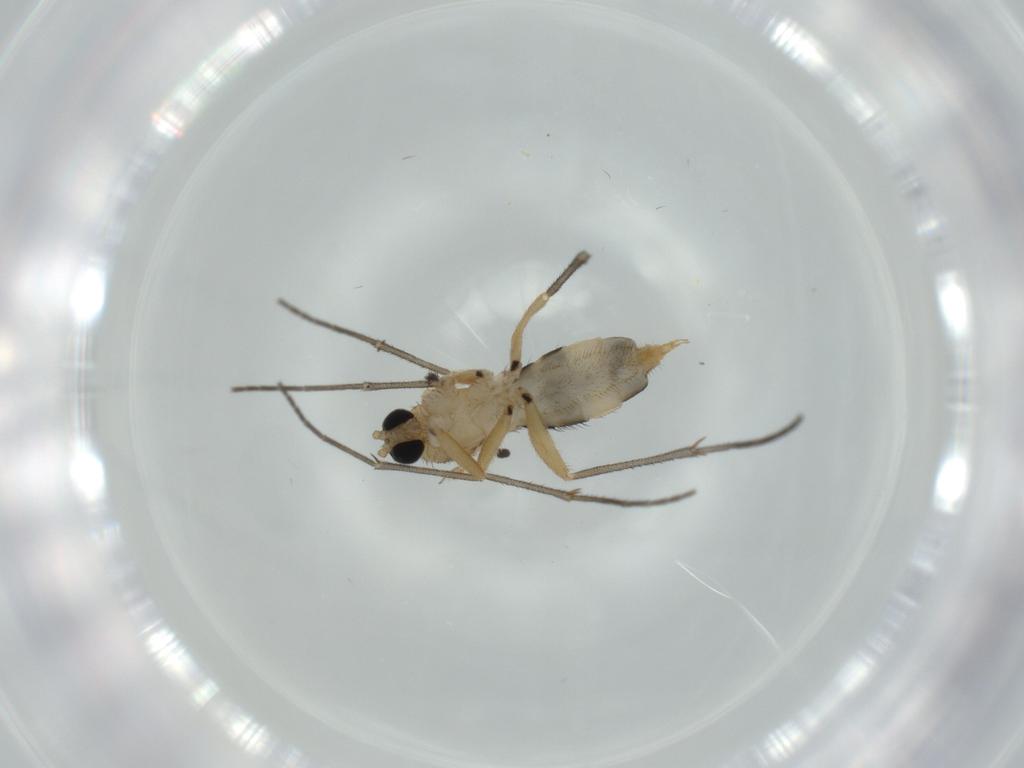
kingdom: Animalia
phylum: Arthropoda
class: Insecta
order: Diptera
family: Sciaridae
